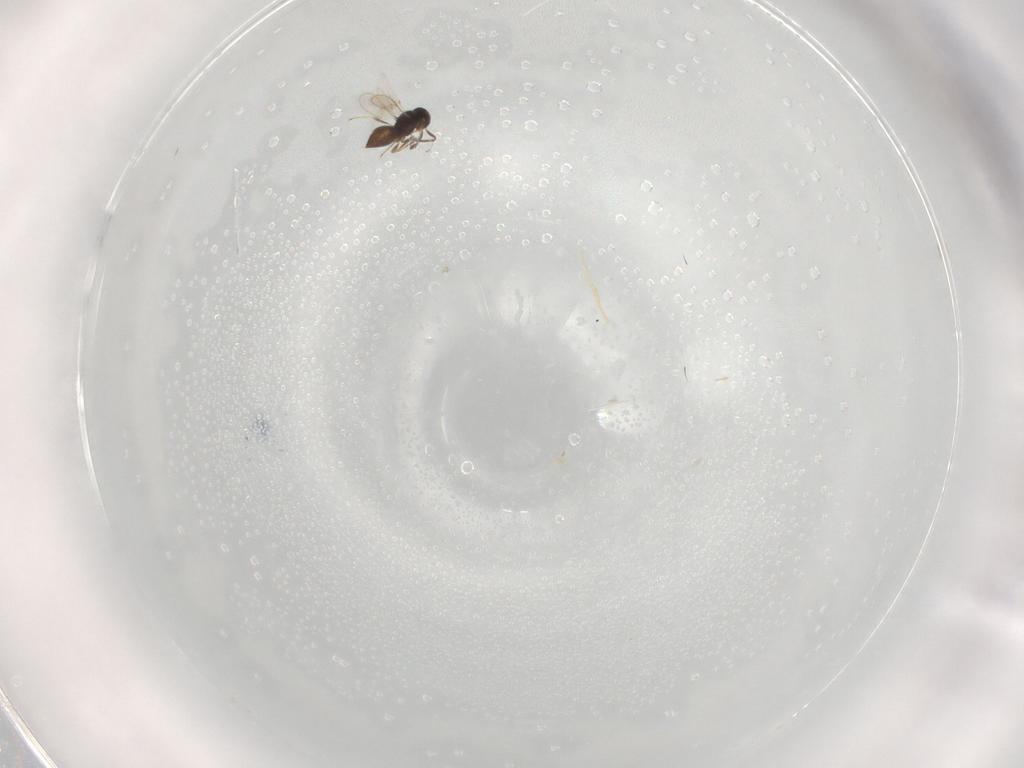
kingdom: Animalia
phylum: Arthropoda
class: Insecta
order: Hymenoptera
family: Scelionidae
